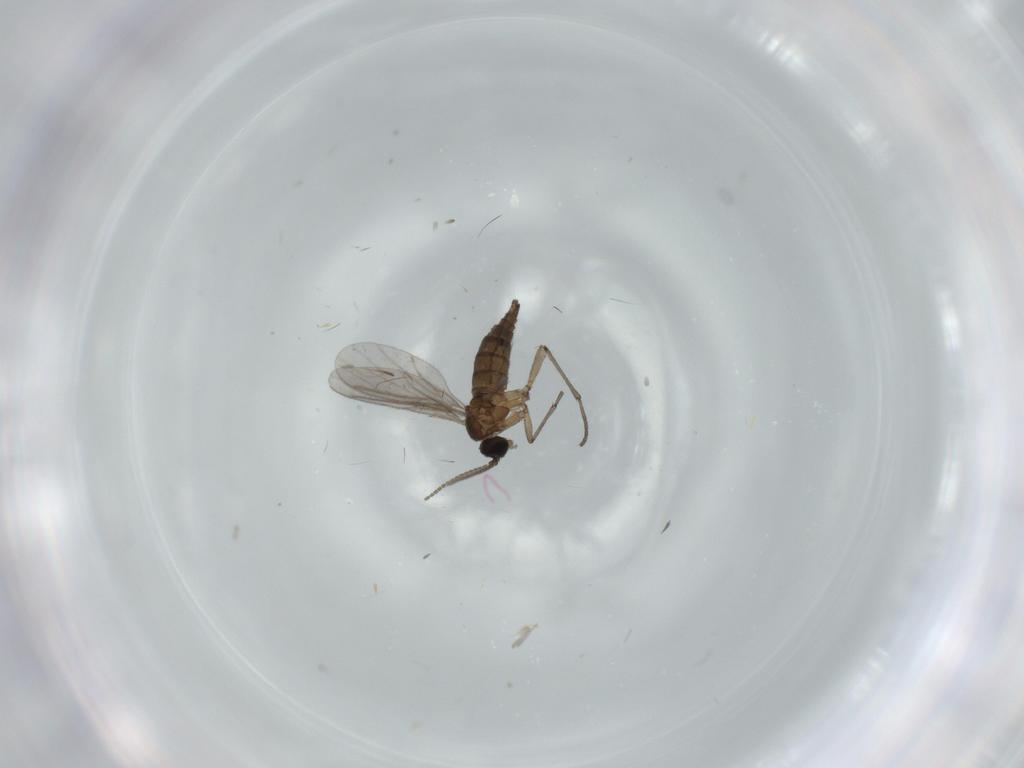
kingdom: Animalia
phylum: Arthropoda
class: Insecta
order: Diptera
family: Sciaridae
